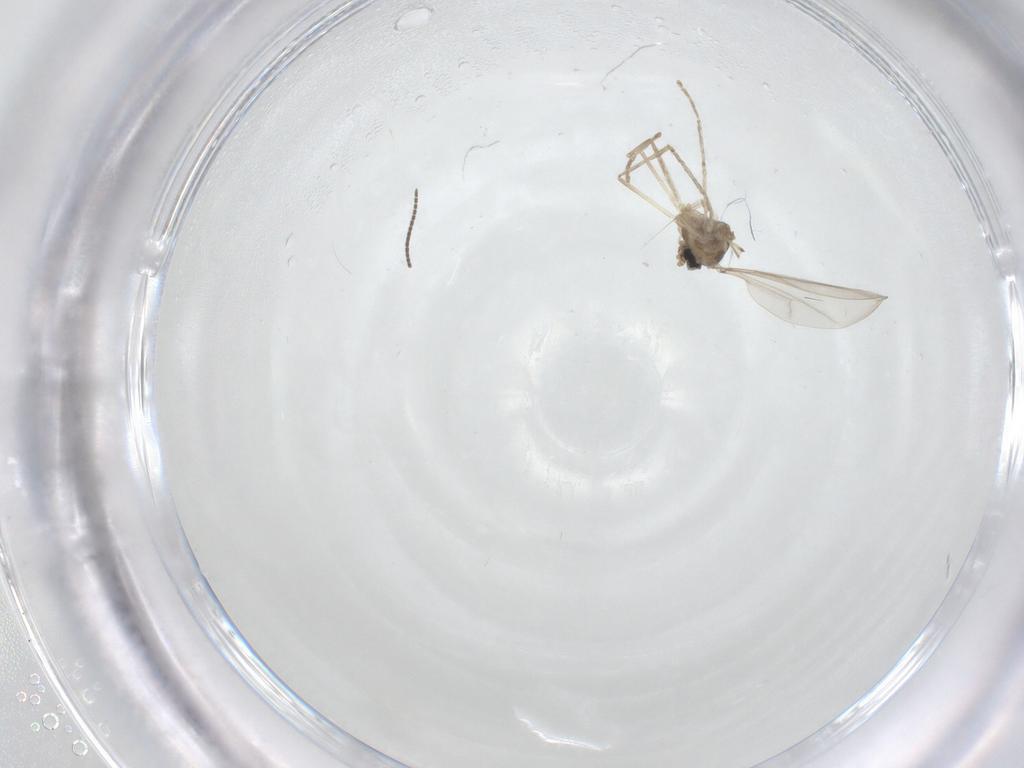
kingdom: Animalia
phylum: Arthropoda
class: Insecta
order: Diptera
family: Cecidomyiidae
